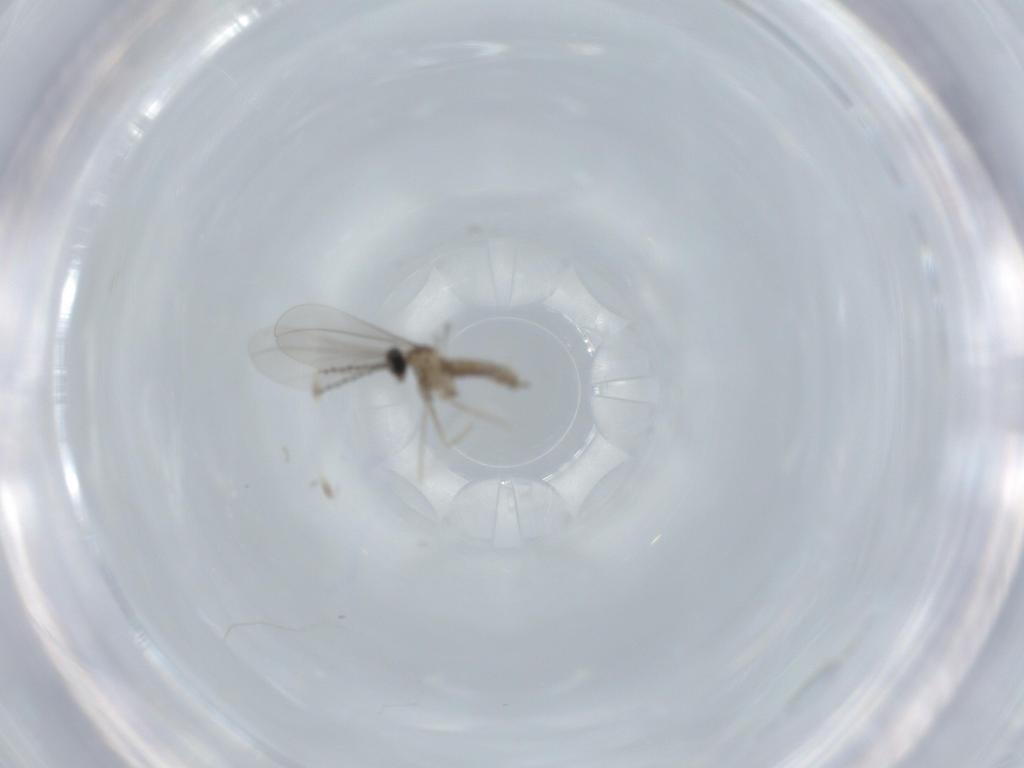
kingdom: Animalia
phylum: Arthropoda
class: Insecta
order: Diptera
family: Cecidomyiidae
